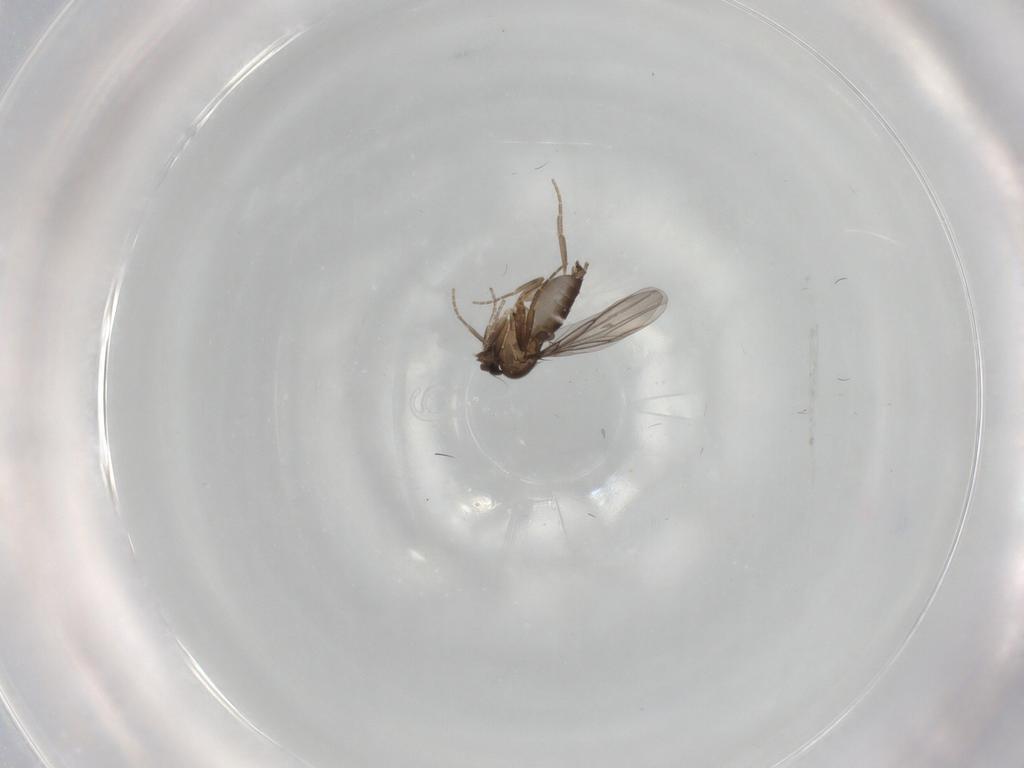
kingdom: Animalia
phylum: Arthropoda
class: Insecta
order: Diptera
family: Phoridae
